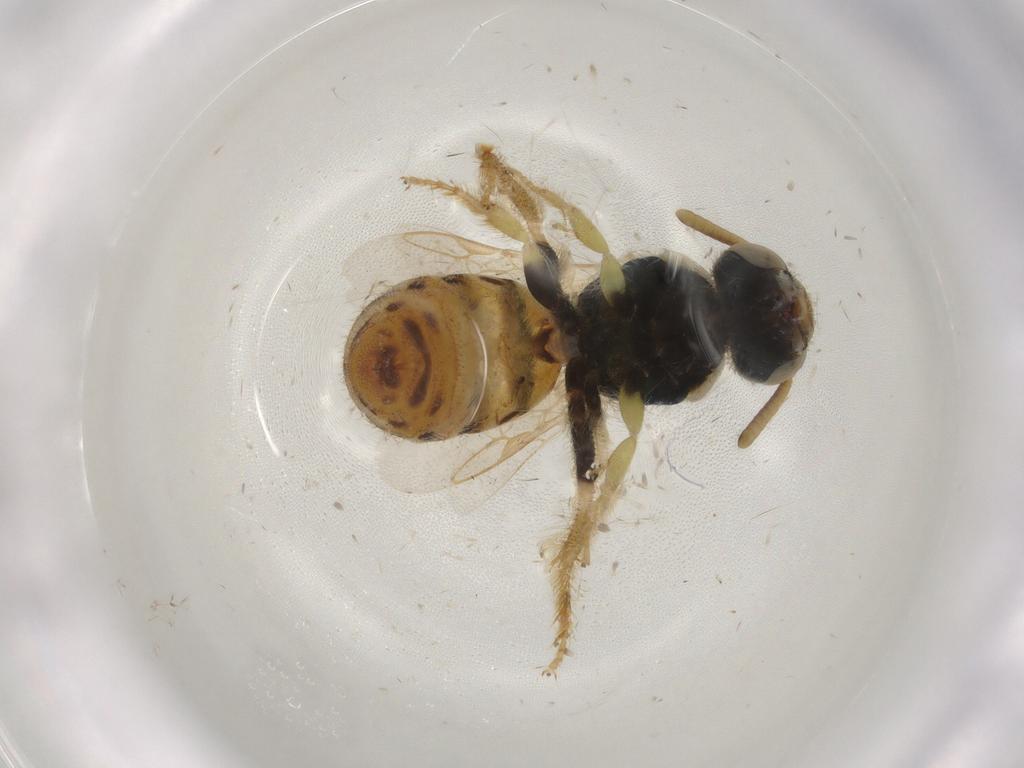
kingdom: Animalia
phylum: Arthropoda
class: Insecta
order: Hymenoptera
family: Halictidae
